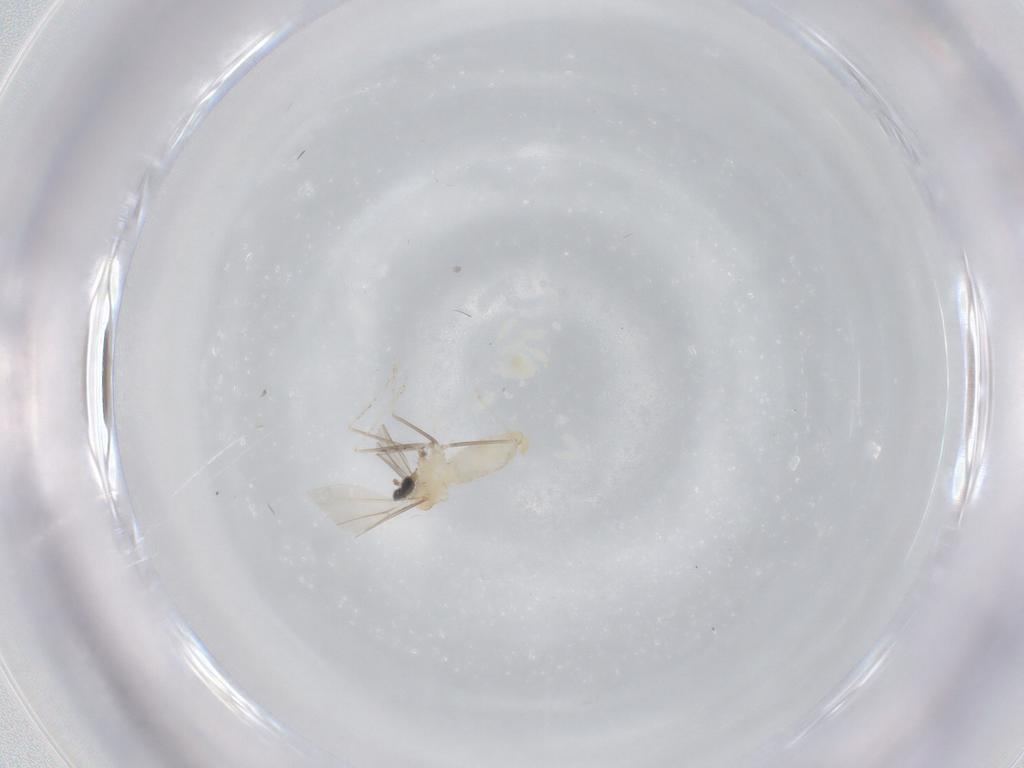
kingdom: Animalia
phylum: Arthropoda
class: Insecta
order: Diptera
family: Cecidomyiidae
